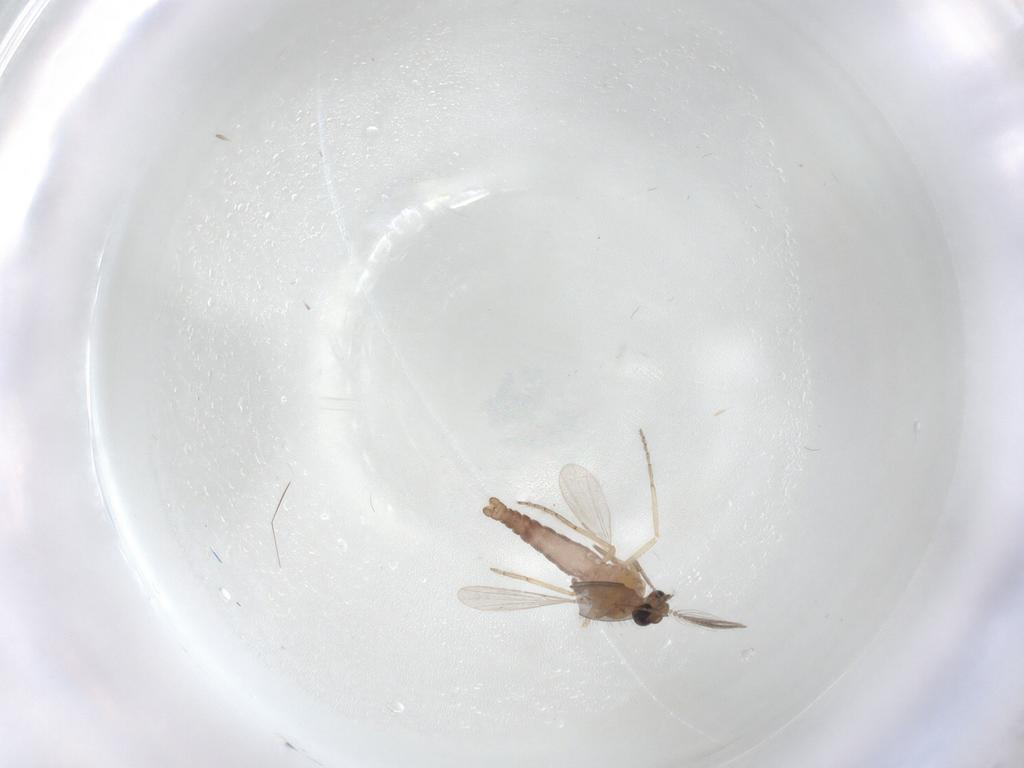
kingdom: Animalia
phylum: Arthropoda
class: Insecta
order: Diptera
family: Ceratopogonidae
